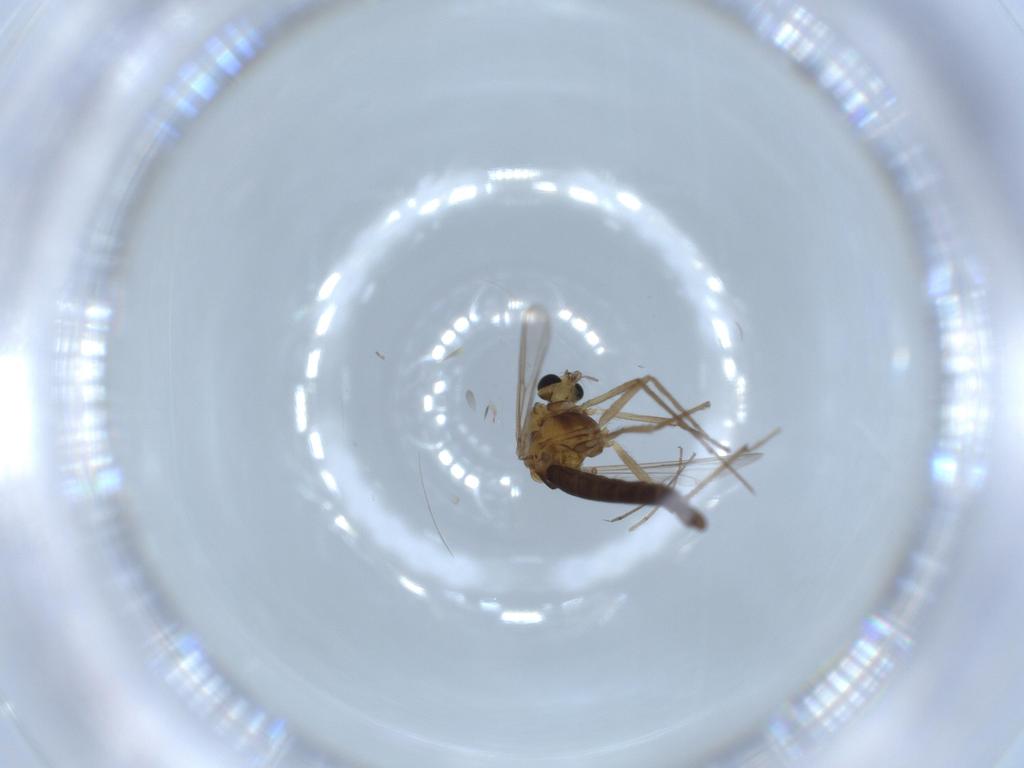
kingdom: Animalia
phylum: Arthropoda
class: Insecta
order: Diptera
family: Chironomidae
